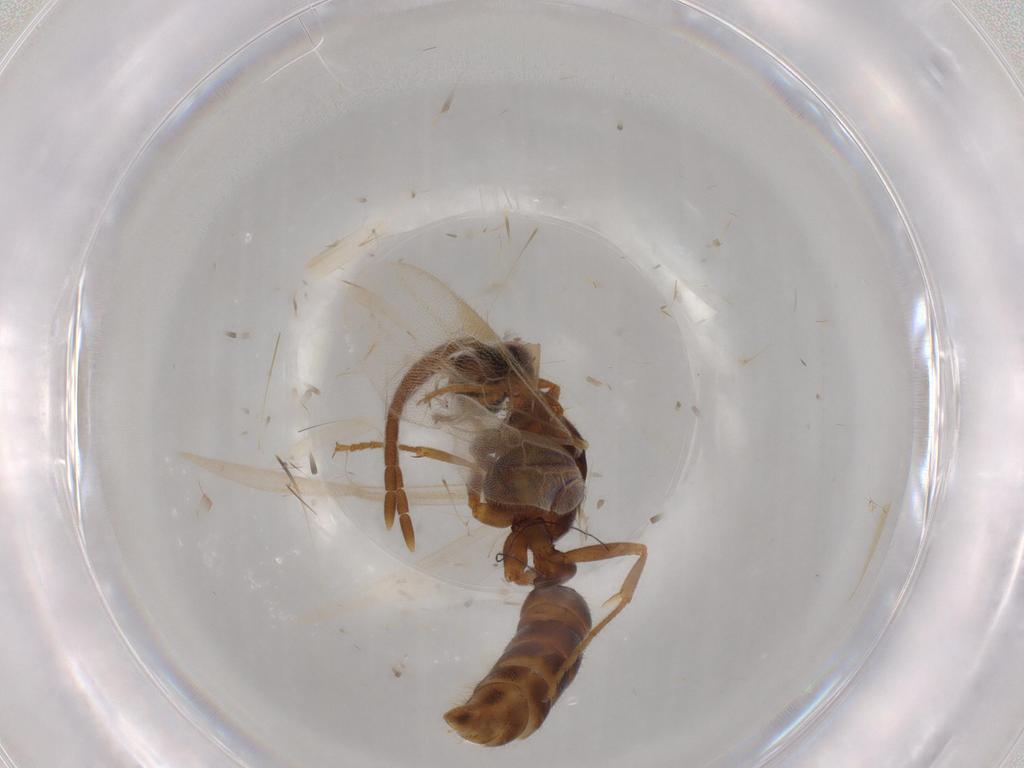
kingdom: Animalia
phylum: Arthropoda
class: Insecta
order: Hymenoptera
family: Formicidae
